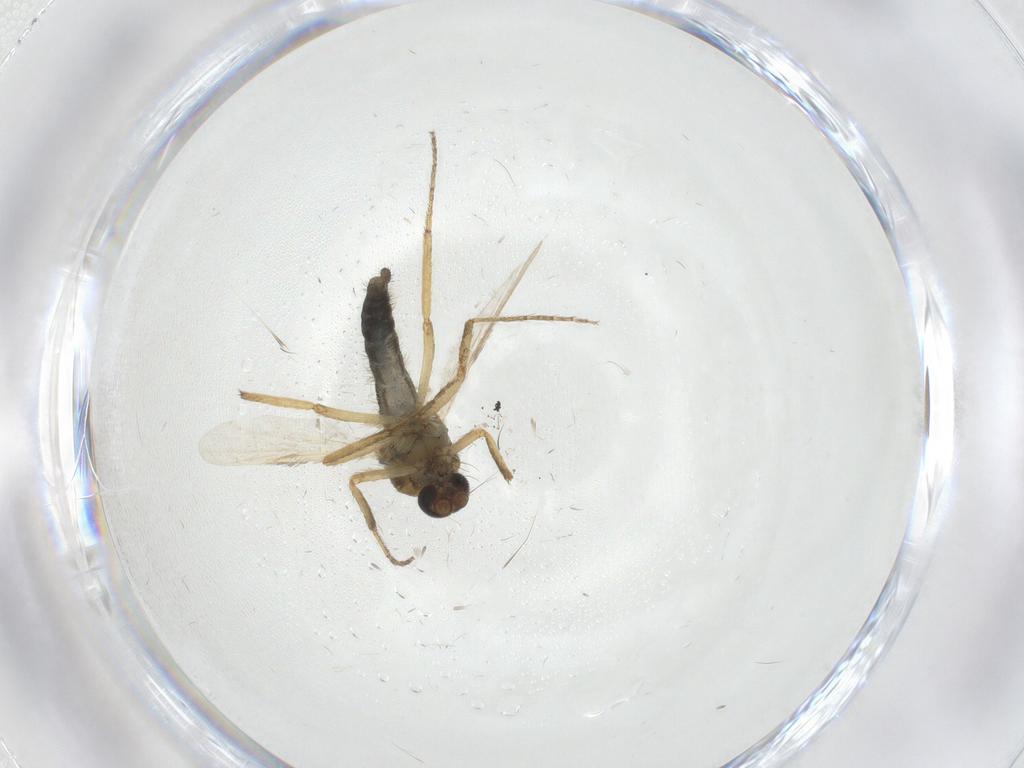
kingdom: Animalia
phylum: Arthropoda
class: Insecta
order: Diptera
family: Ceratopogonidae
